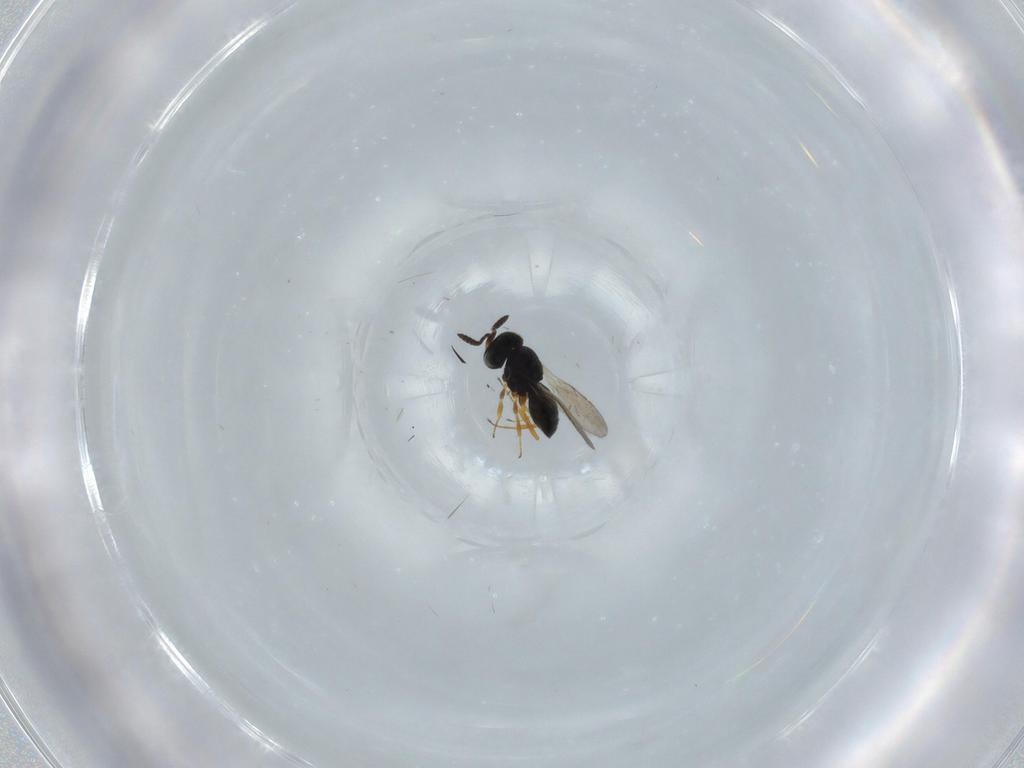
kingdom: Animalia
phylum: Arthropoda
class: Insecta
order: Hymenoptera
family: Scelionidae
